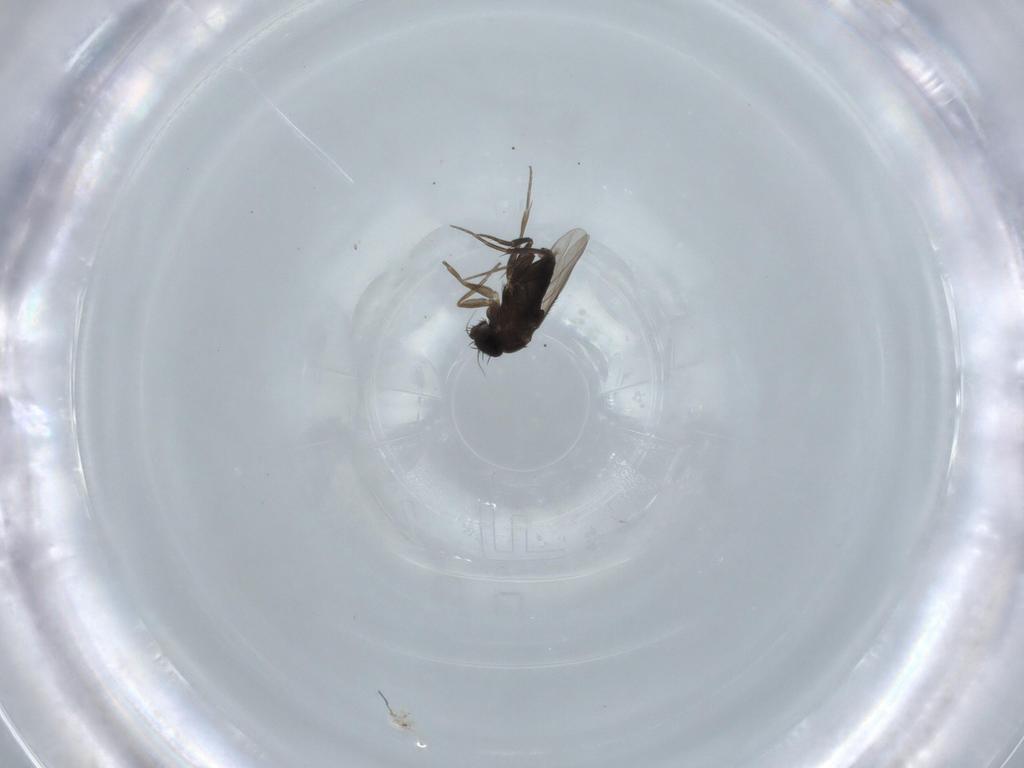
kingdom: Animalia
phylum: Arthropoda
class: Insecta
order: Diptera
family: Phoridae
